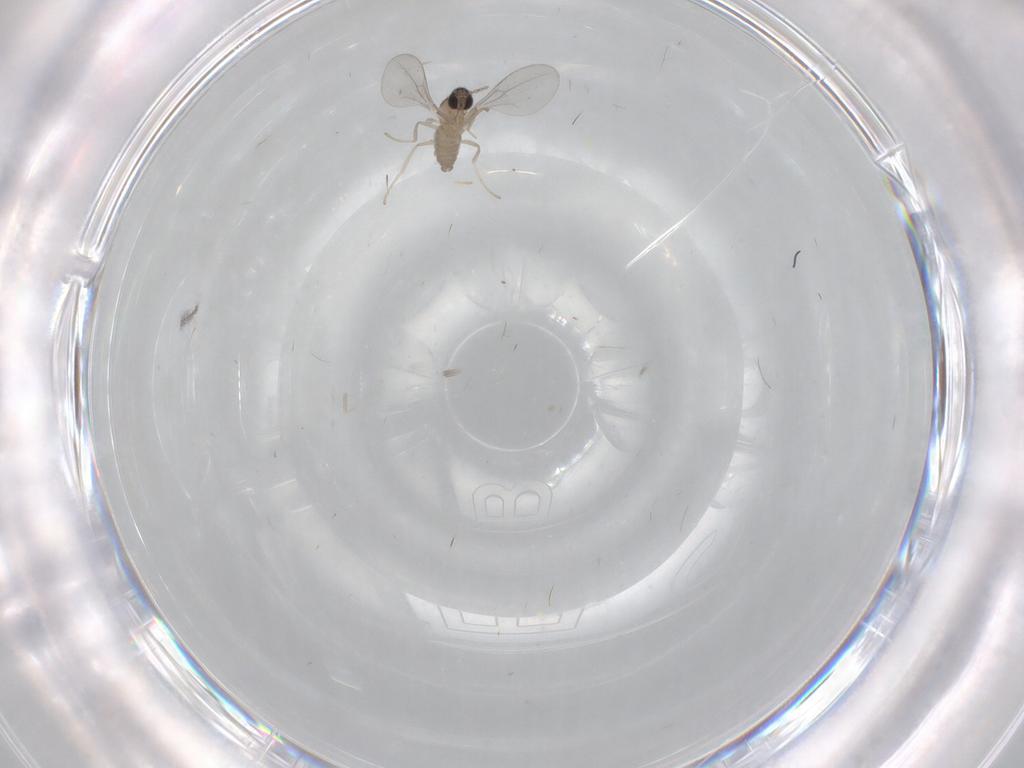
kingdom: Animalia
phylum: Arthropoda
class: Insecta
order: Diptera
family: Cecidomyiidae
